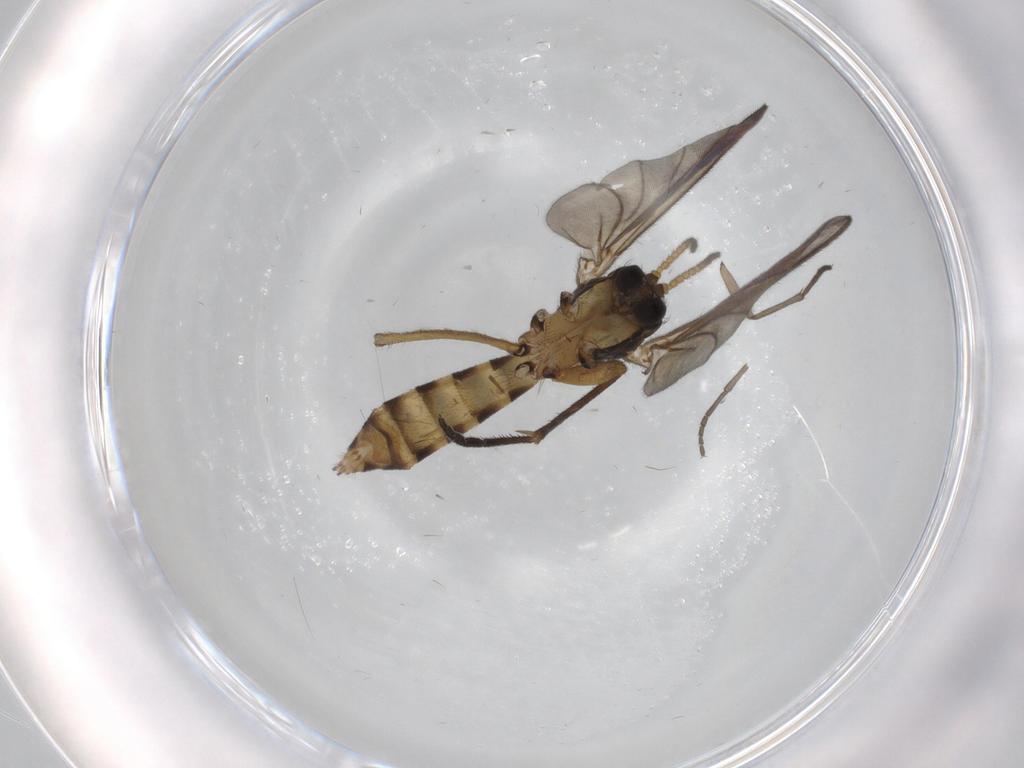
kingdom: Animalia
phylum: Arthropoda
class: Insecta
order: Diptera
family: Sciaridae
